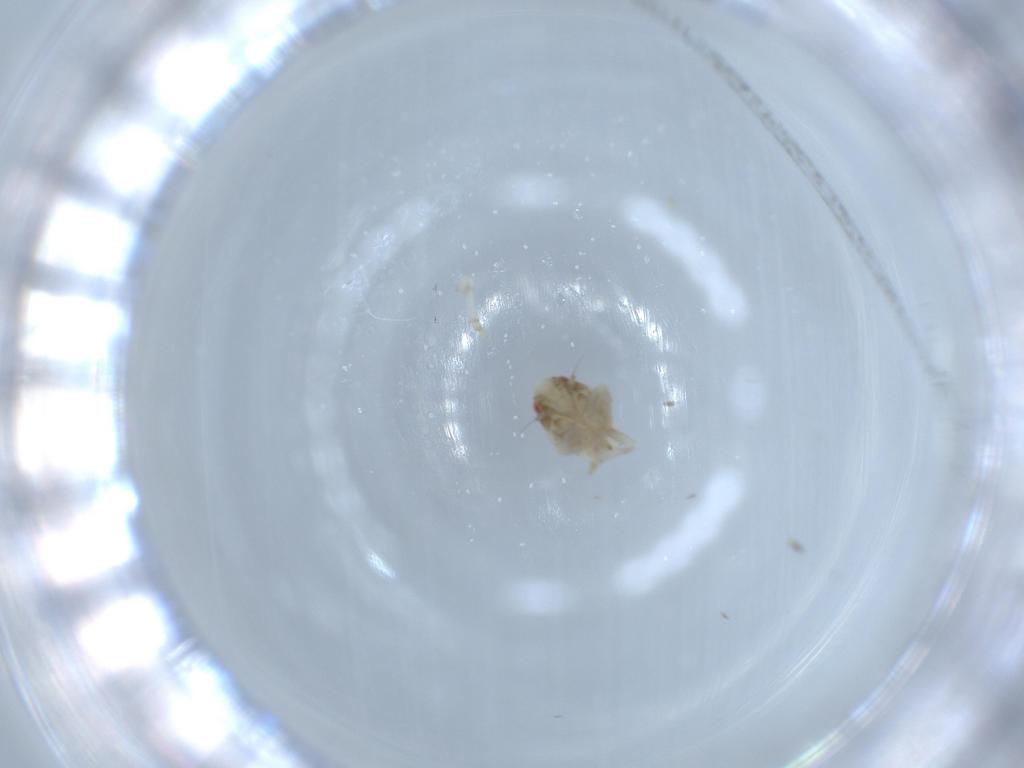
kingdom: Animalia
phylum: Arthropoda
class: Insecta
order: Hemiptera
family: Acanaloniidae
